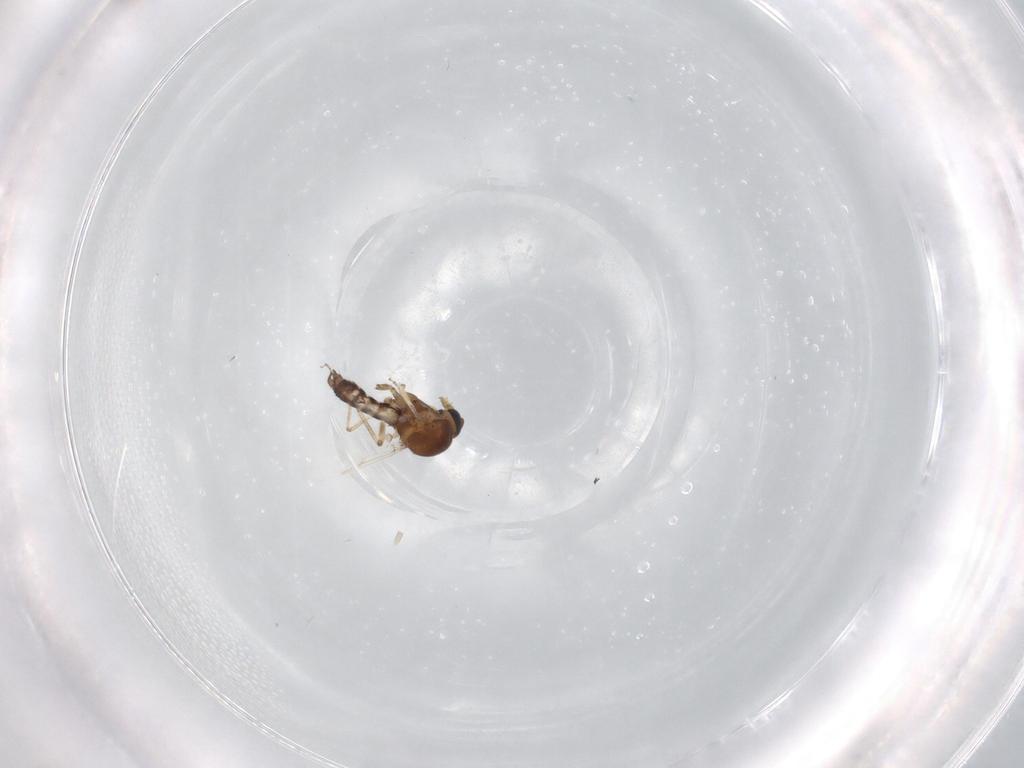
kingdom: Animalia
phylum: Arthropoda
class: Insecta
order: Diptera
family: Ceratopogonidae
